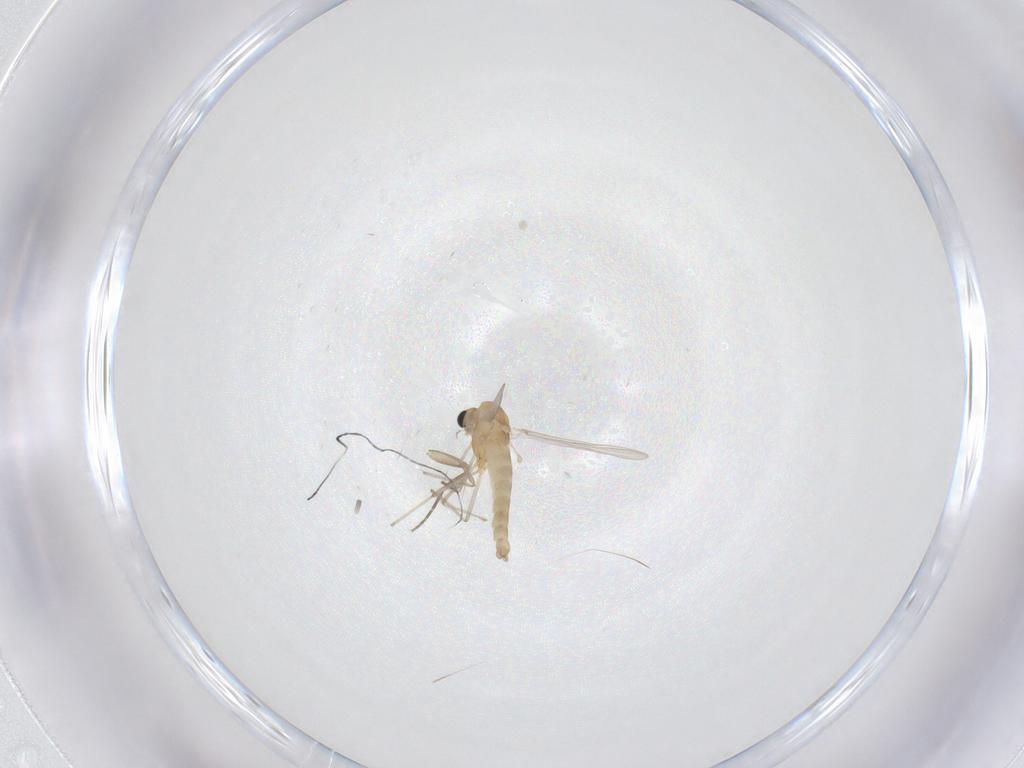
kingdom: Animalia
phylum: Arthropoda
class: Insecta
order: Diptera
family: Chironomidae
